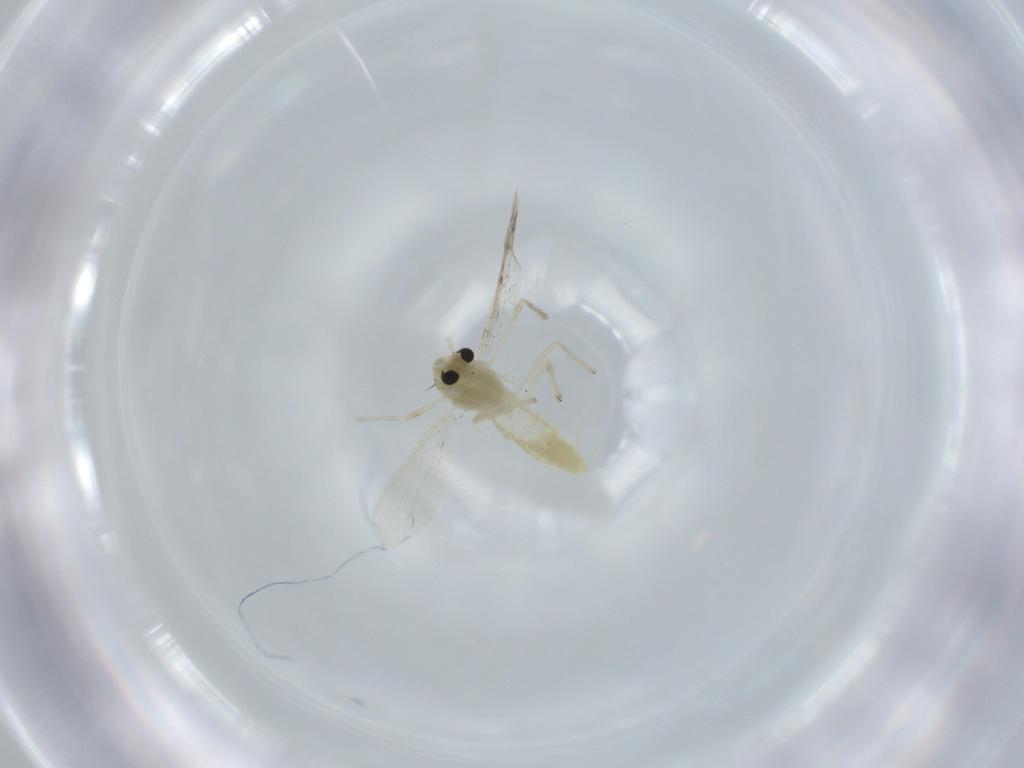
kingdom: Animalia
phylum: Arthropoda
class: Insecta
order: Diptera
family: Chironomidae
